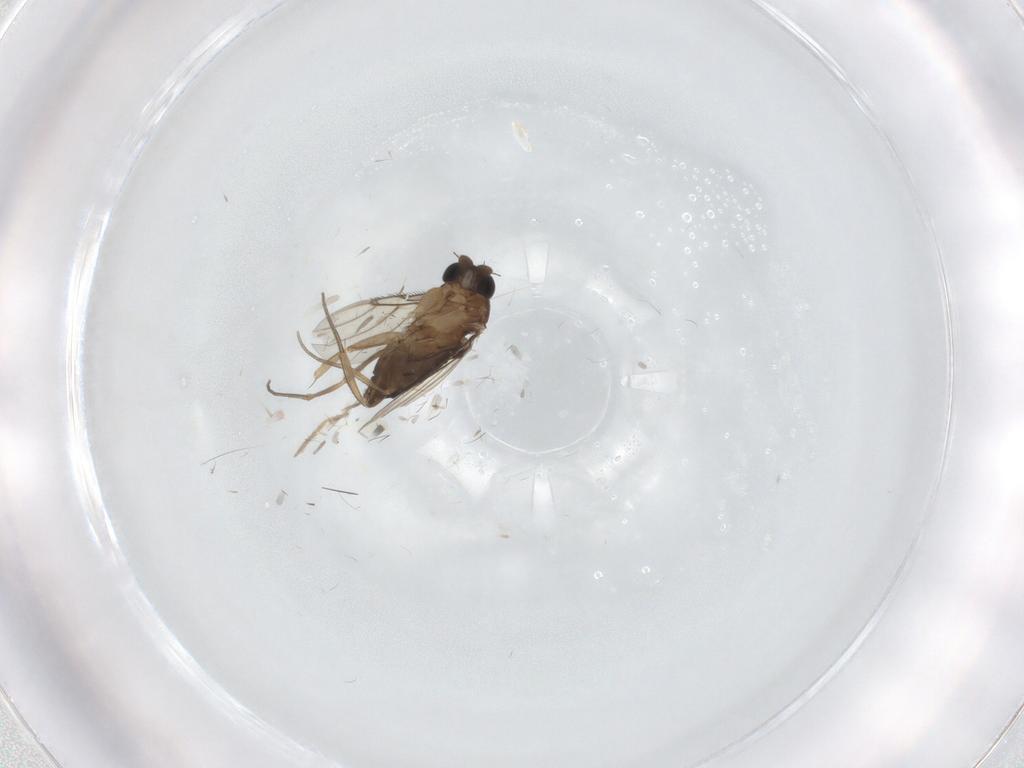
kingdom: Animalia
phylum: Arthropoda
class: Insecta
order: Diptera
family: Chironomidae
